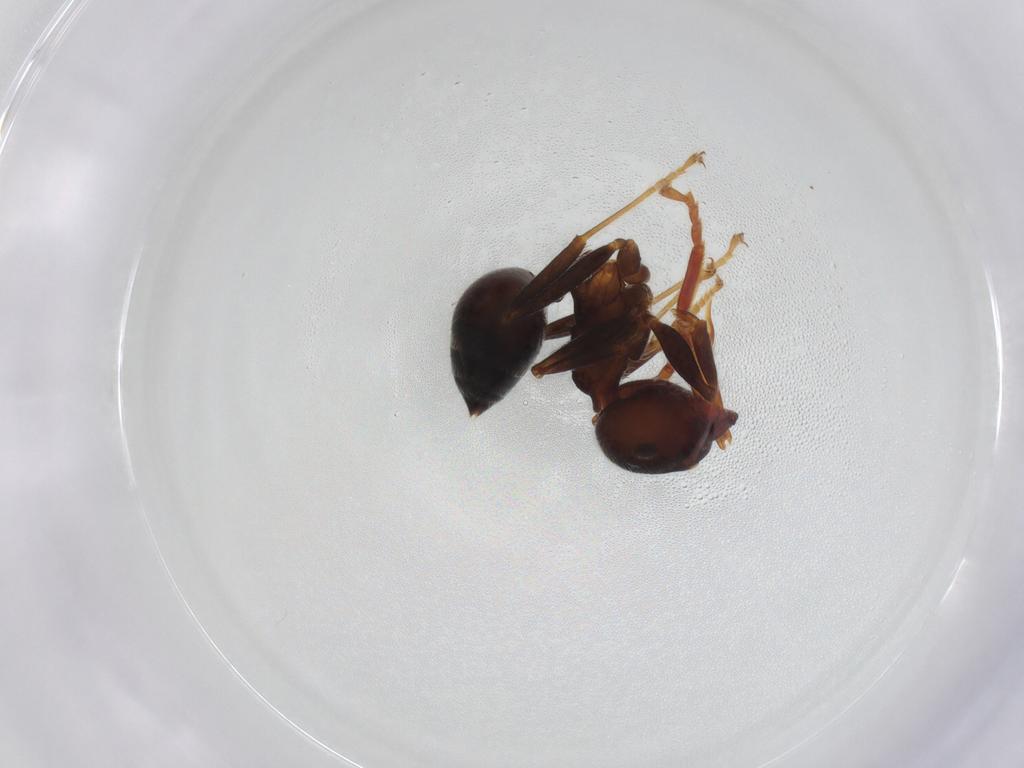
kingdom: Animalia
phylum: Arthropoda
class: Insecta
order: Hymenoptera
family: Formicidae
